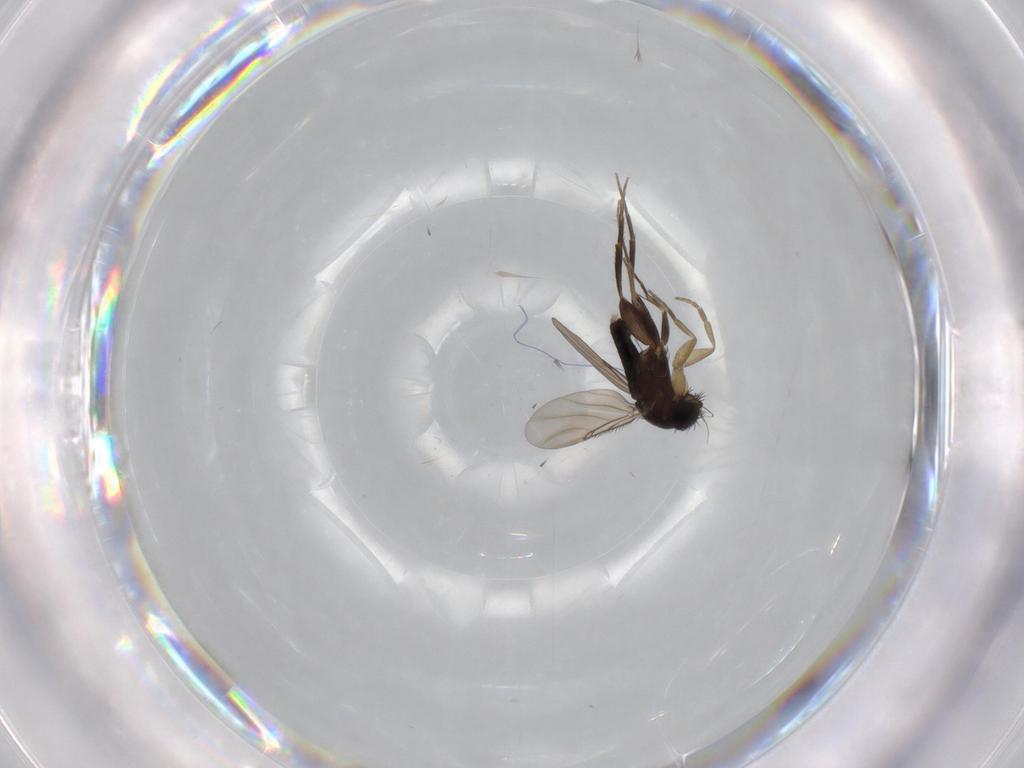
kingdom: Animalia
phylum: Arthropoda
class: Insecta
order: Diptera
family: Phoridae
